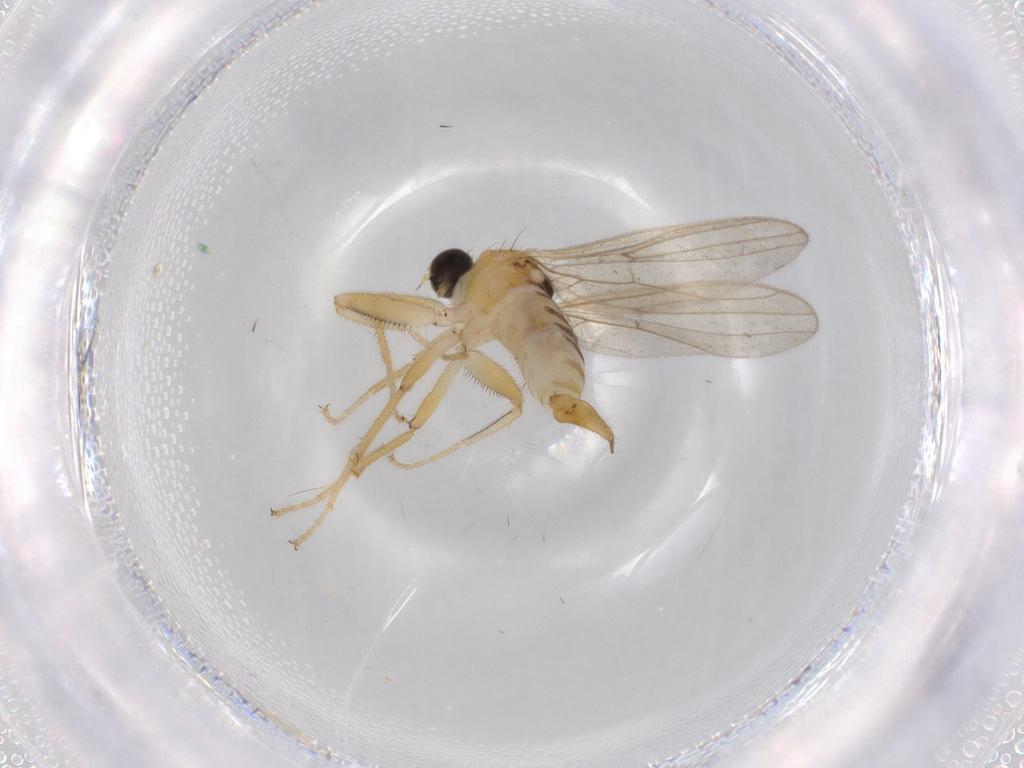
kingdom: Animalia
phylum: Arthropoda
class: Insecta
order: Diptera
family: Hybotidae
